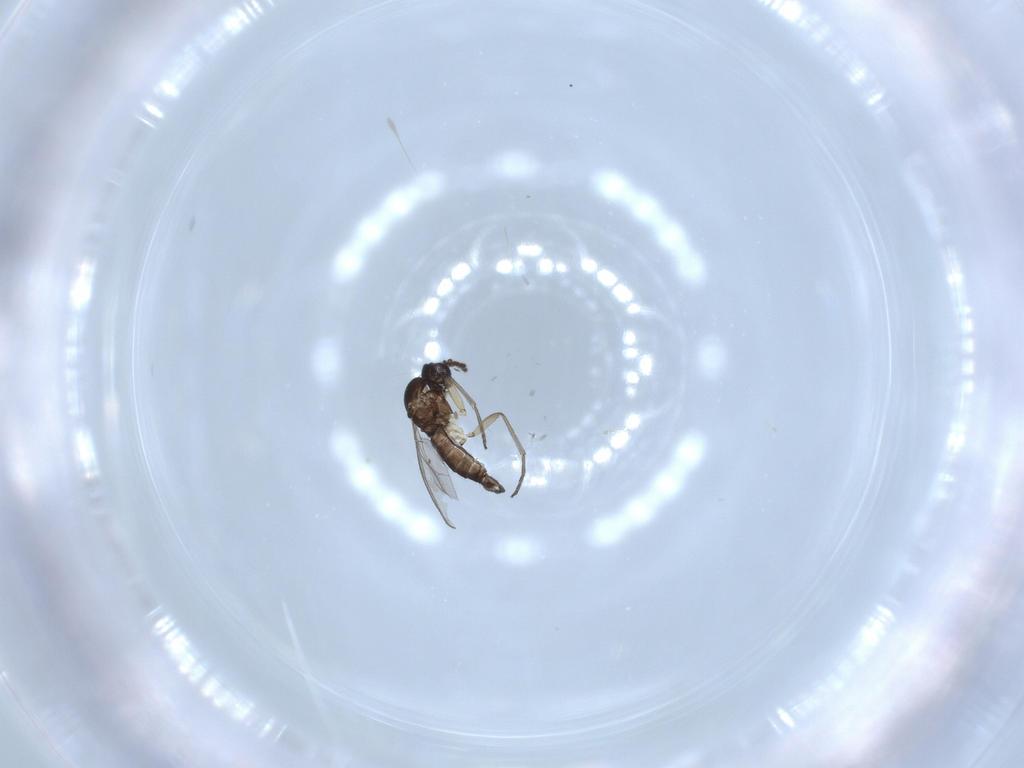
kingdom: Animalia
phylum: Arthropoda
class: Insecta
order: Diptera
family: Sciaridae
